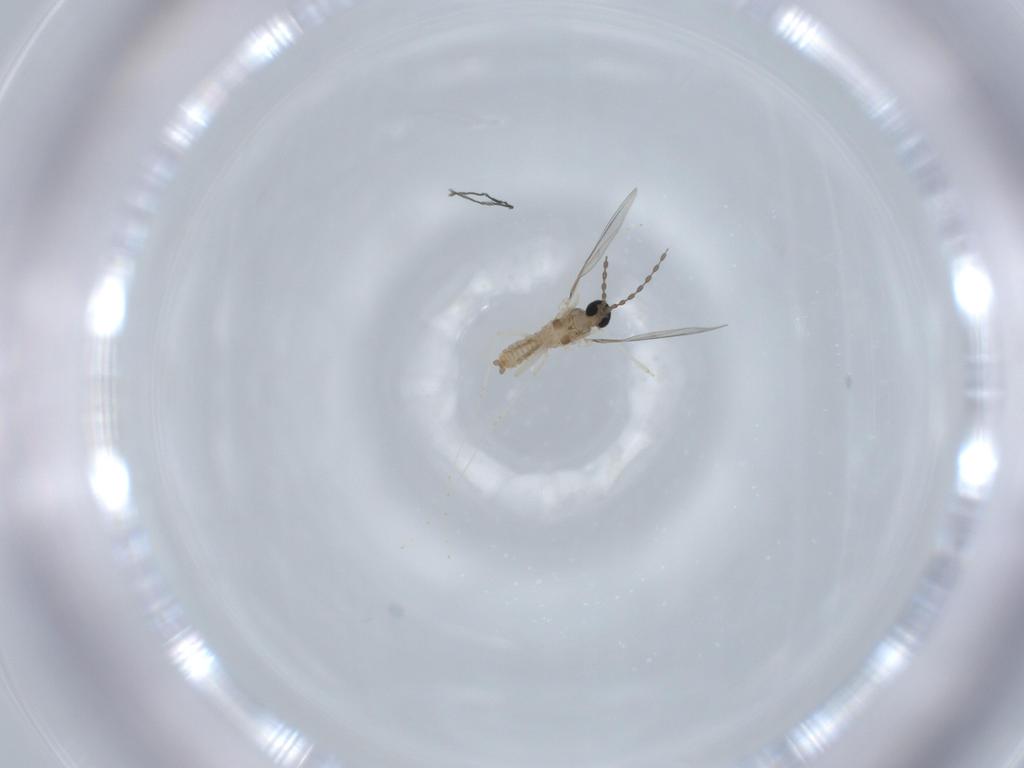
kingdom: Animalia
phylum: Arthropoda
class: Insecta
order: Diptera
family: Cecidomyiidae
